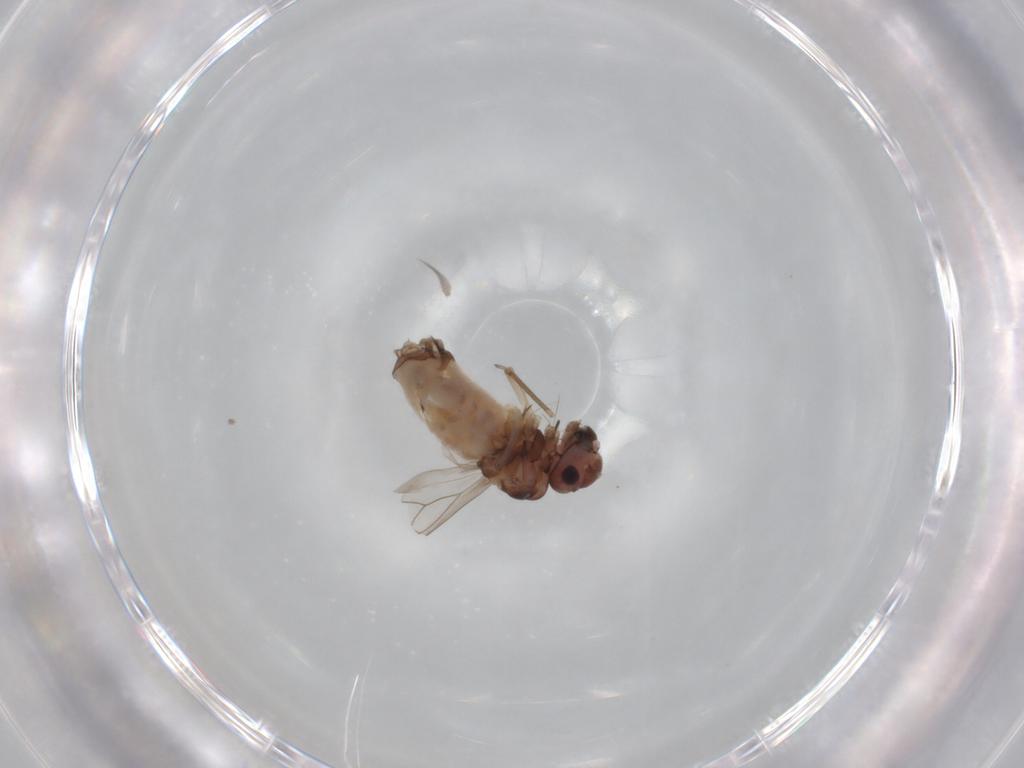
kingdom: Animalia
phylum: Arthropoda
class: Insecta
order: Psocodea
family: Peripsocidae
